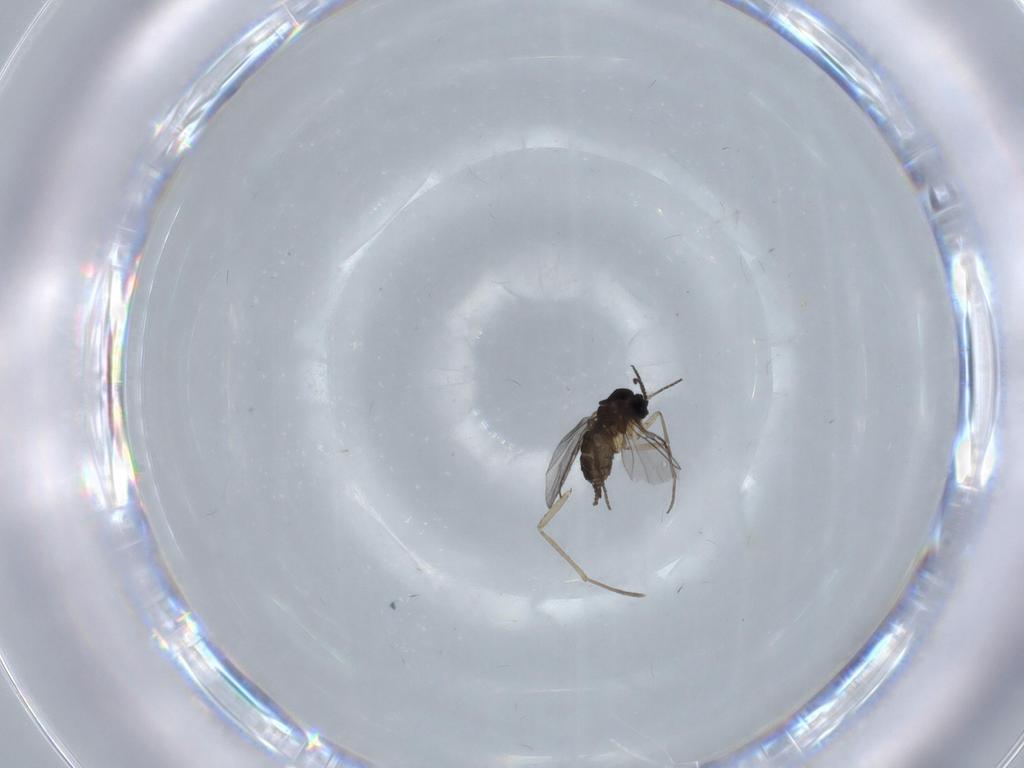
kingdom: Animalia
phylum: Arthropoda
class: Insecta
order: Diptera
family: Sciaridae
